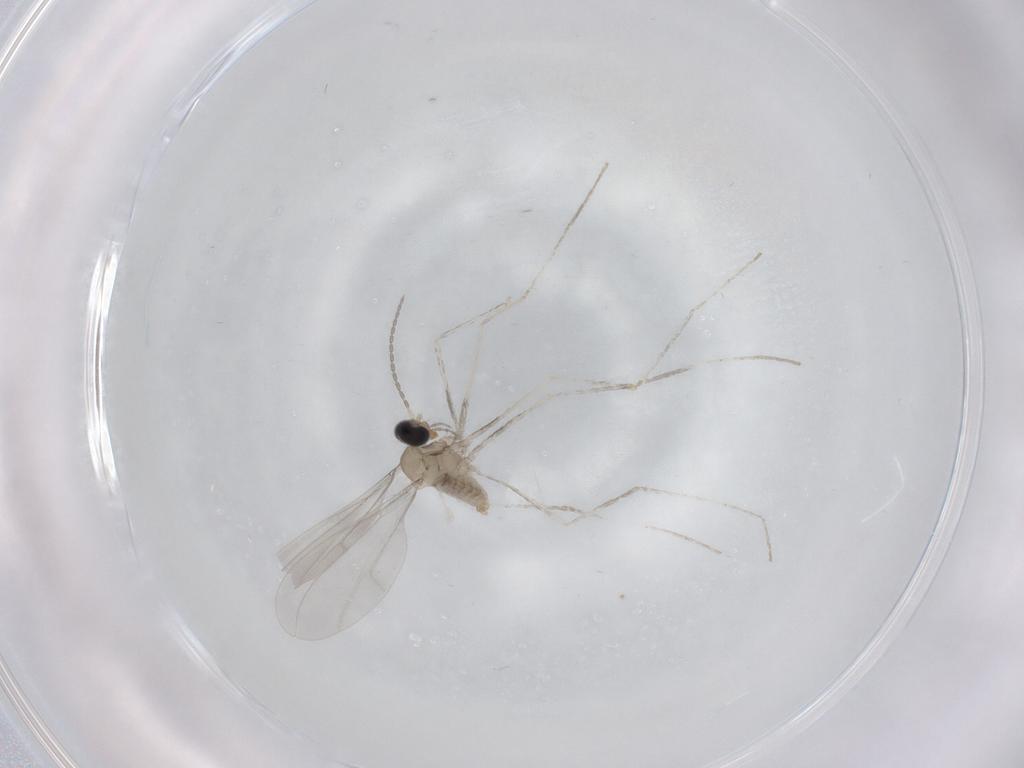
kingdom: Animalia
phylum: Arthropoda
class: Insecta
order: Diptera
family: Cecidomyiidae
